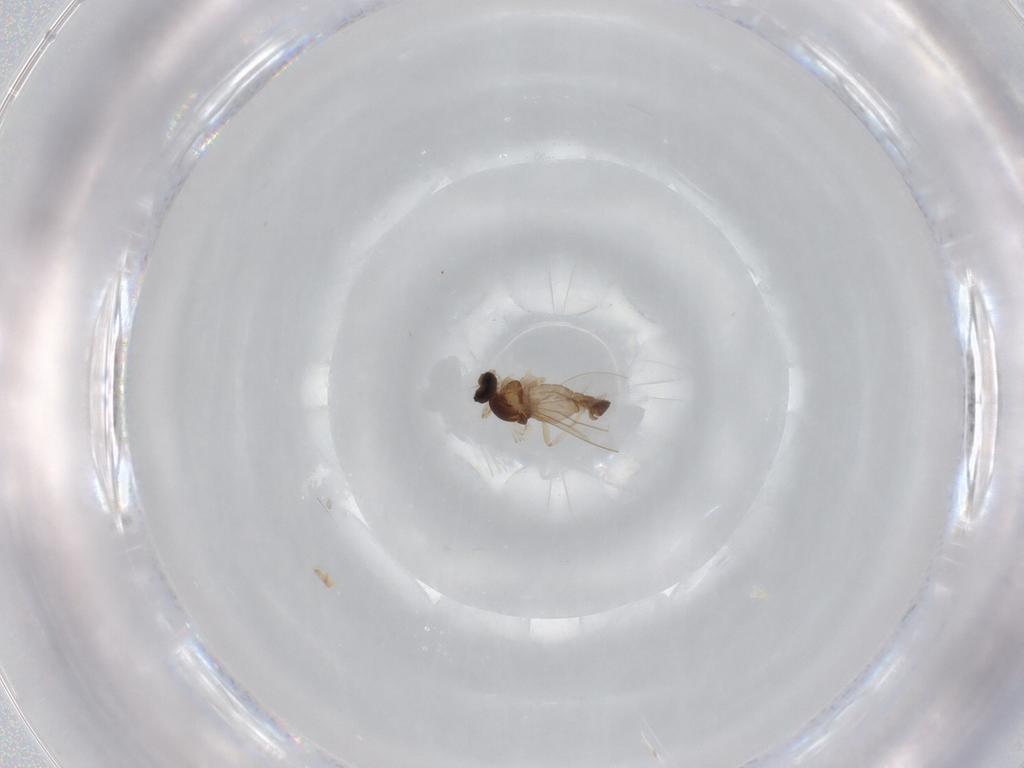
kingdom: Animalia
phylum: Arthropoda
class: Insecta
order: Diptera
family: Cecidomyiidae
